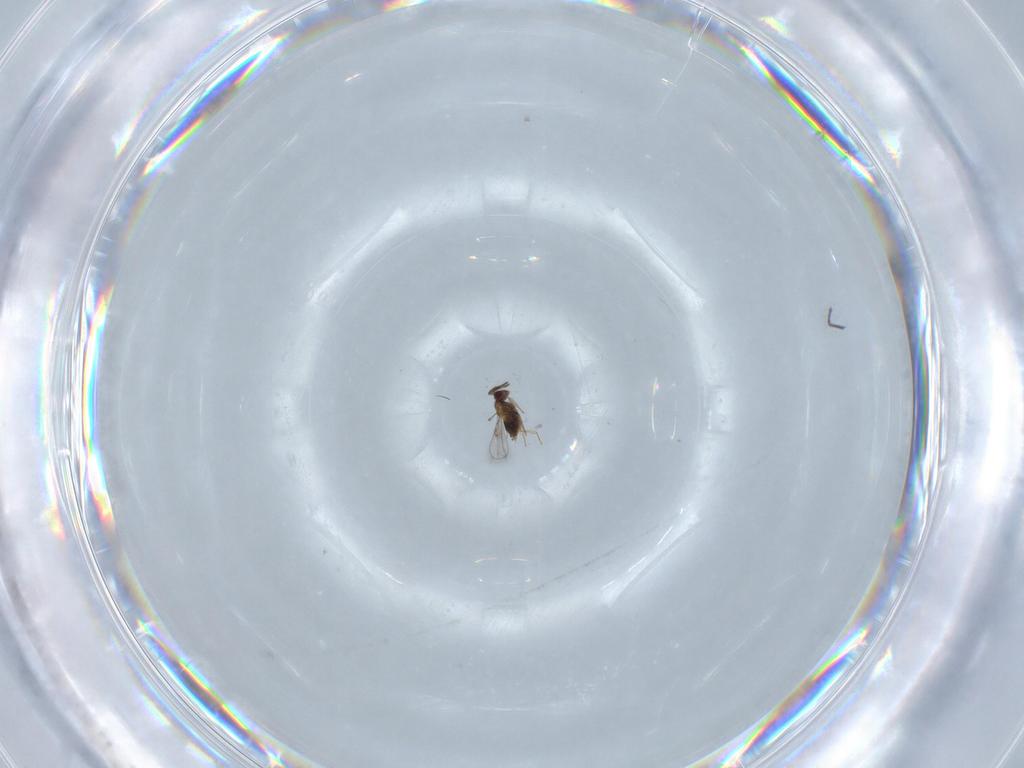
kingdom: Animalia
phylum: Arthropoda
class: Insecta
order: Hymenoptera
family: Trichogrammatidae
